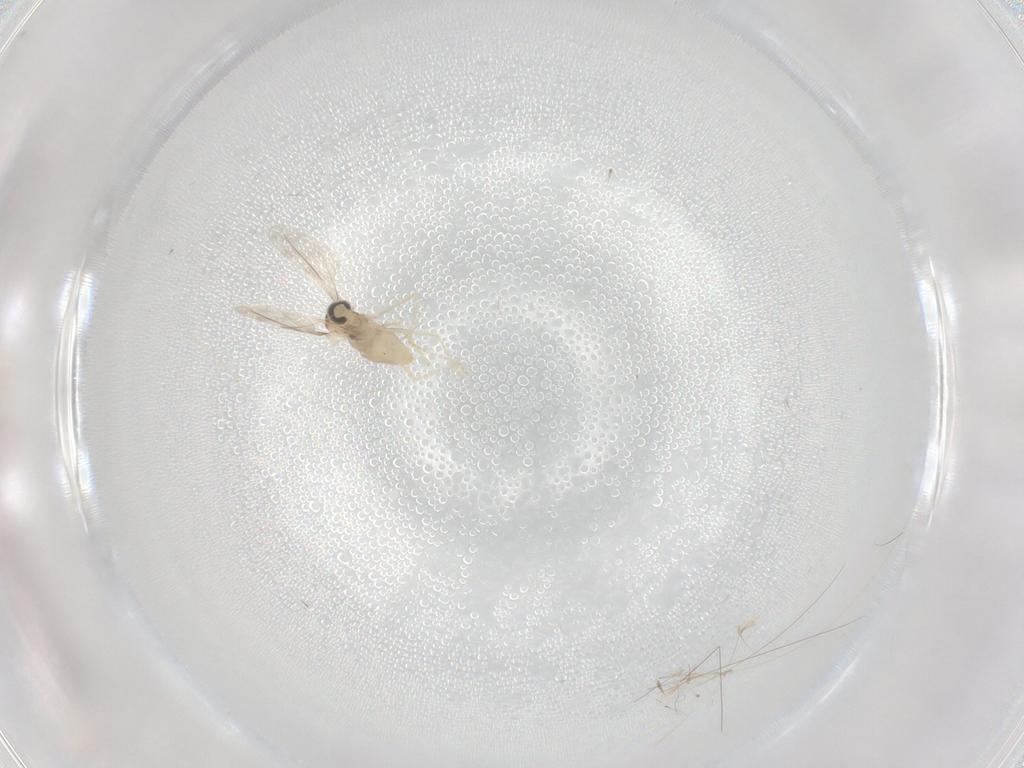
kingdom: Animalia
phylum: Arthropoda
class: Insecta
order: Diptera
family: Cecidomyiidae
